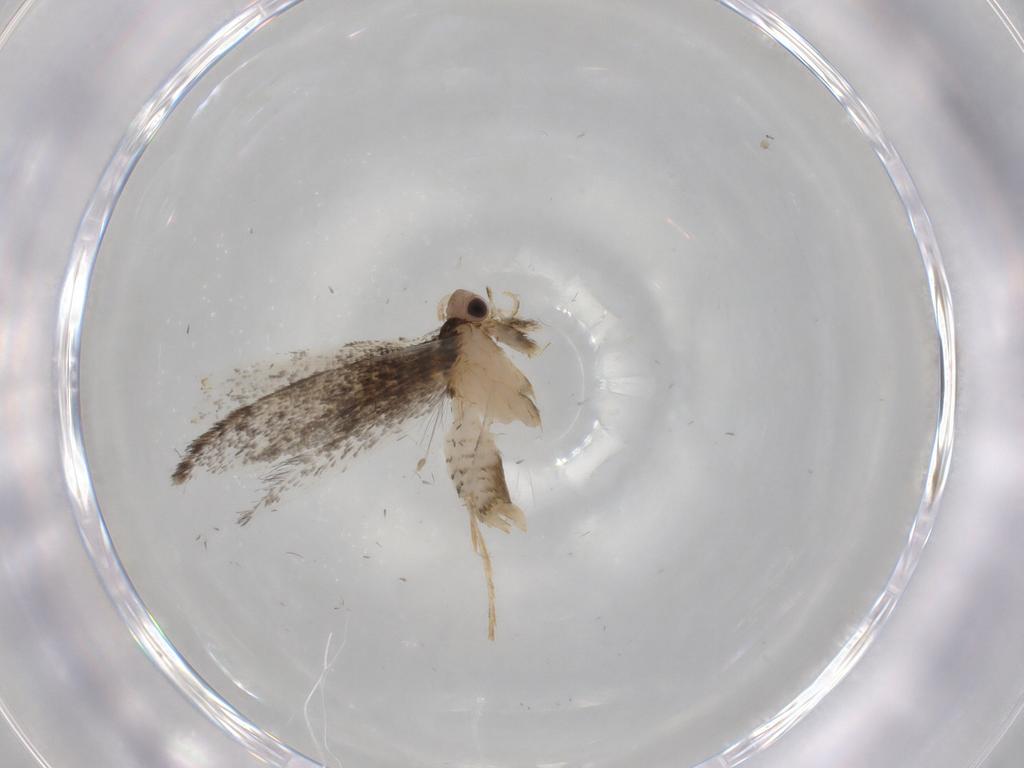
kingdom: Animalia
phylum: Arthropoda
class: Insecta
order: Lepidoptera
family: Tineidae
